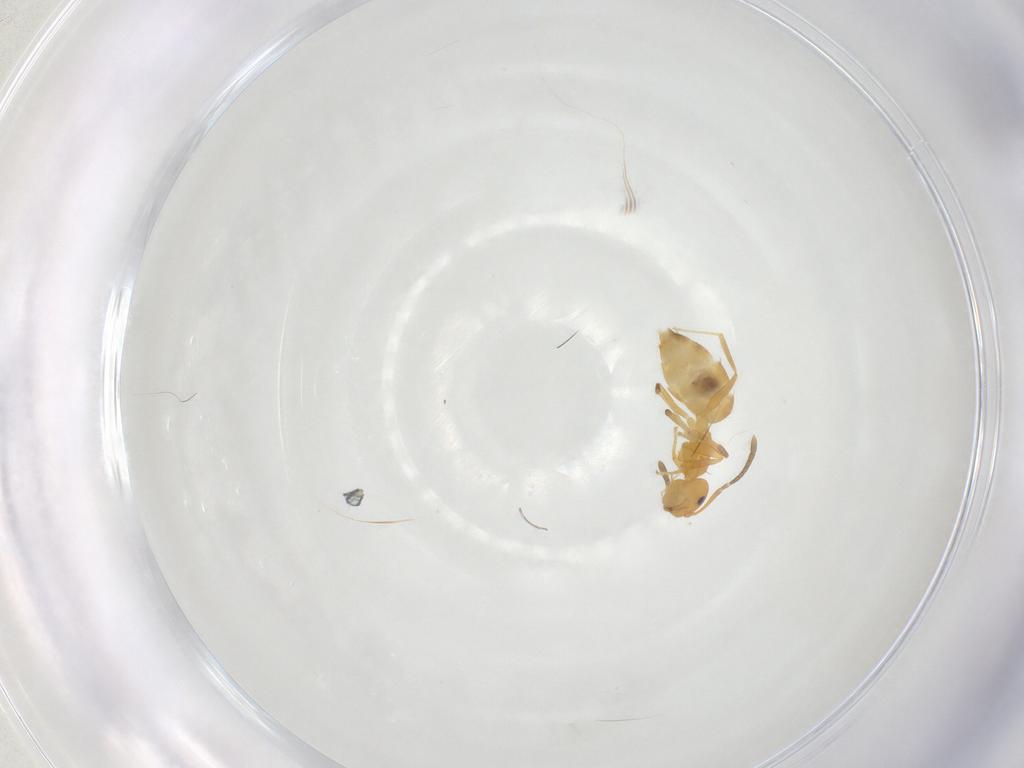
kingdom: Animalia
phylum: Arthropoda
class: Insecta
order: Hymenoptera
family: Formicidae
